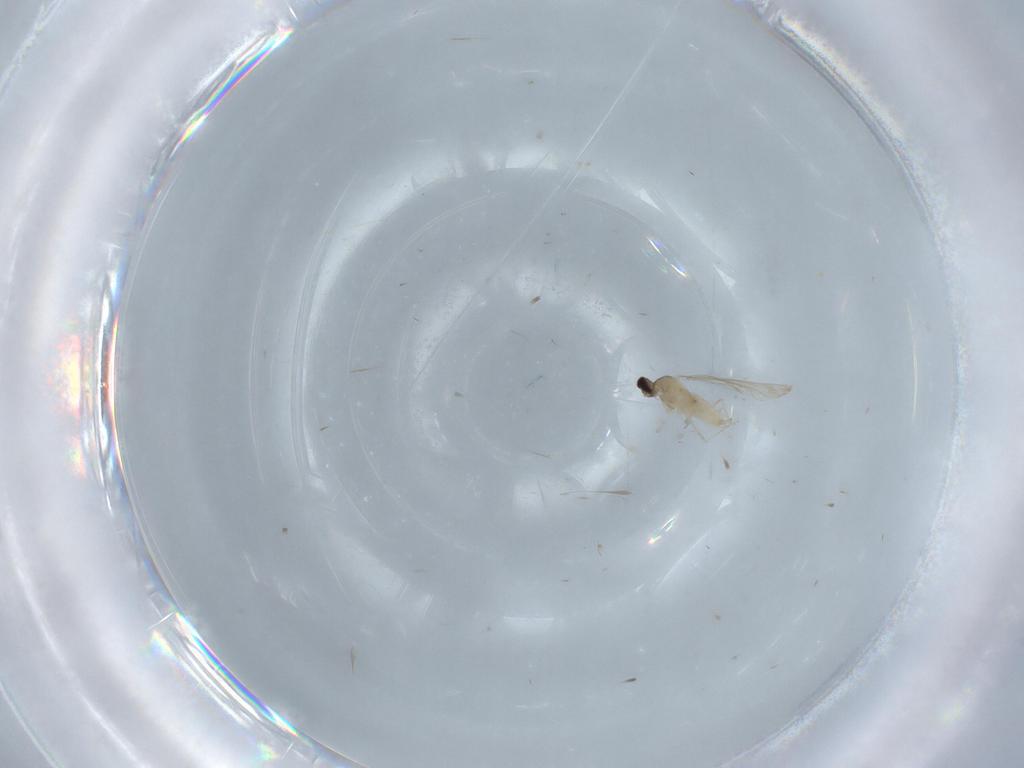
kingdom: Animalia
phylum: Arthropoda
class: Insecta
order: Diptera
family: Cecidomyiidae
